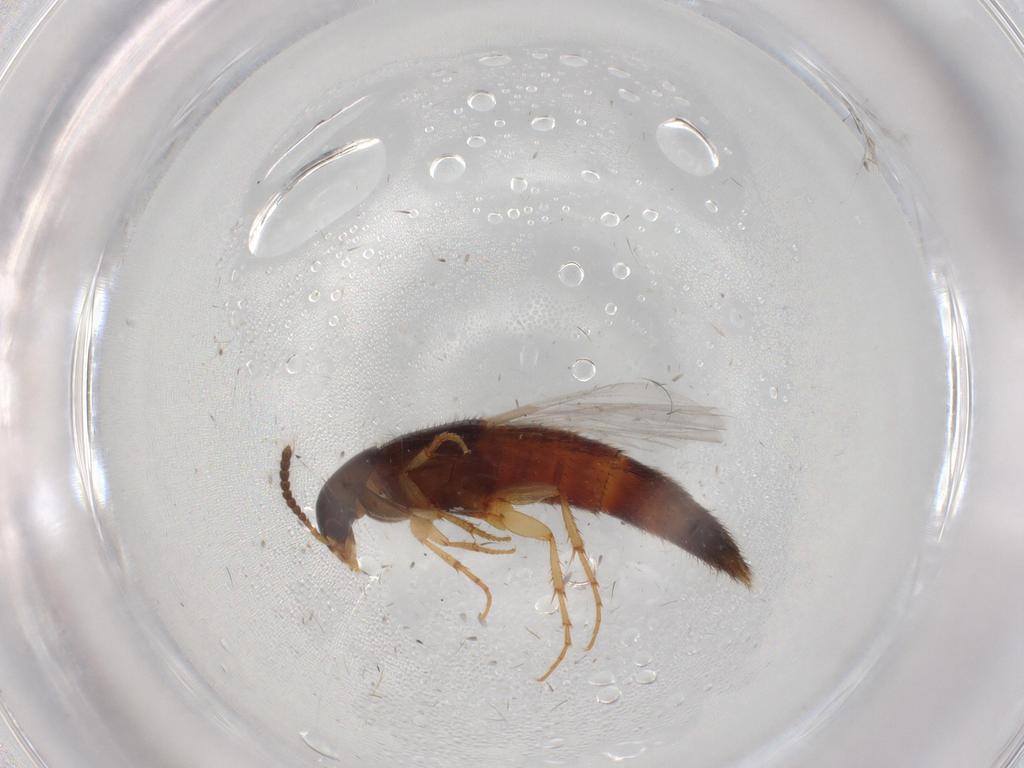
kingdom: Animalia
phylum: Arthropoda
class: Insecta
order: Coleoptera
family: Staphylinidae
